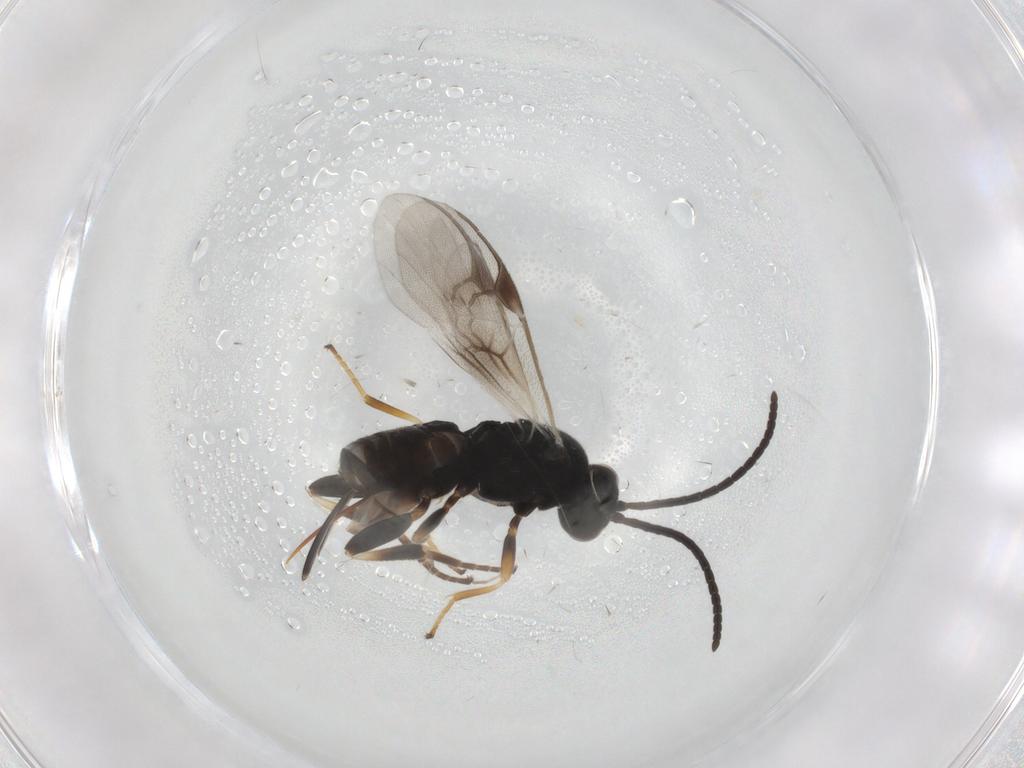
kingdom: Animalia
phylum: Arthropoda
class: Insecta
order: Hymenoptera
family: Braconidae
